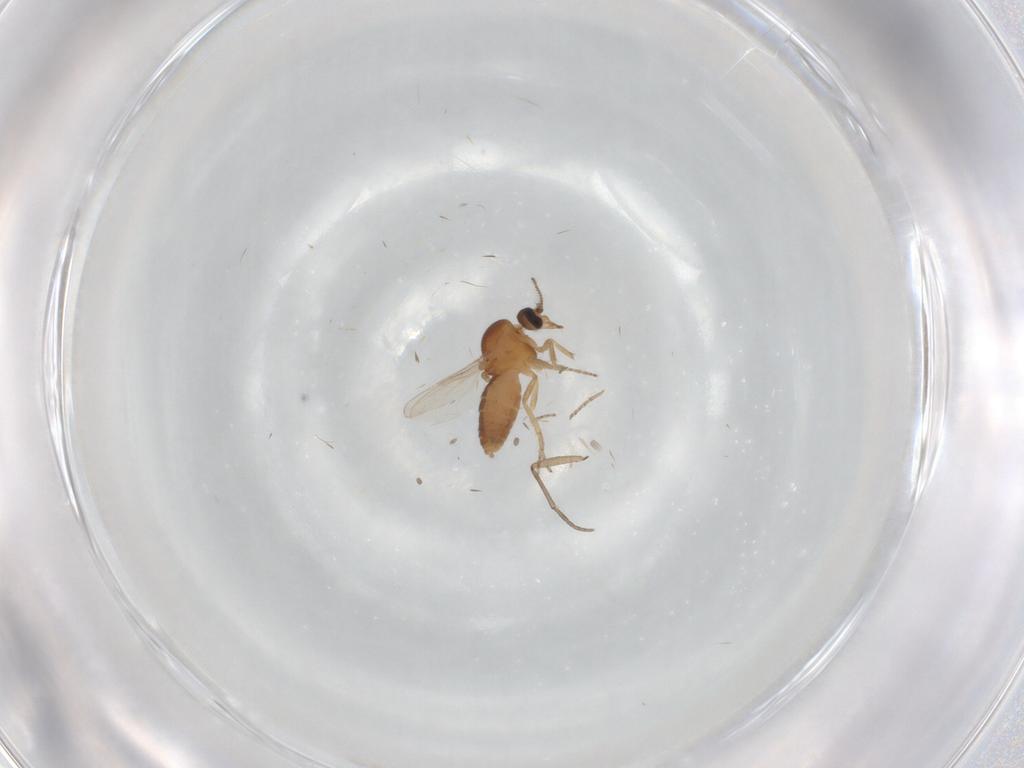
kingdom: Animalia
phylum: Arthropoda
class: Insecta
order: Diptera
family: Ceratopogonidae
